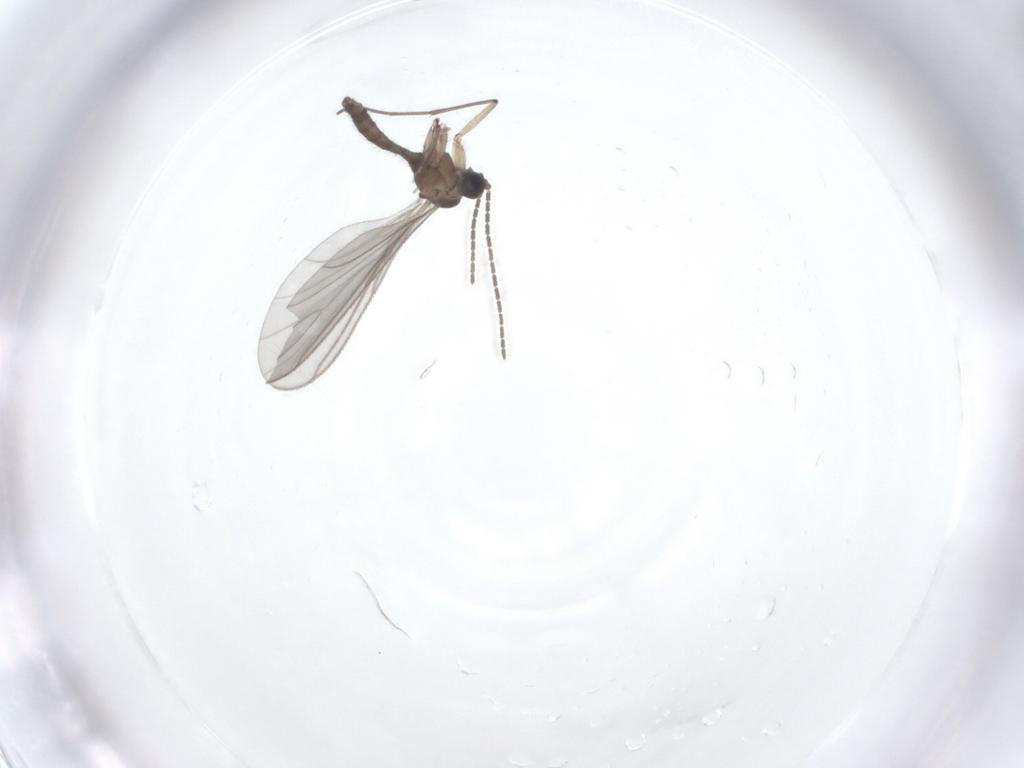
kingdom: Animalia
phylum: Arthropoda
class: Insecta
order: Diptera
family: Sciaridae
